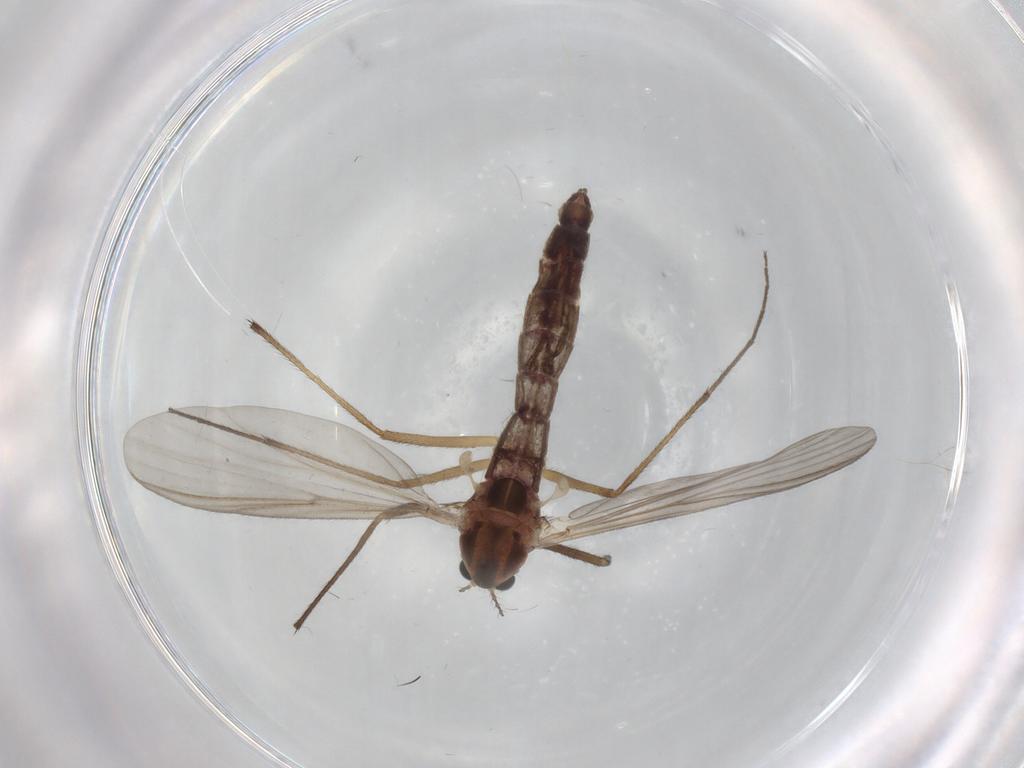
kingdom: Animalia
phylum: Arthropoda
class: Insecta
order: Diptera
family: Chironomidae
